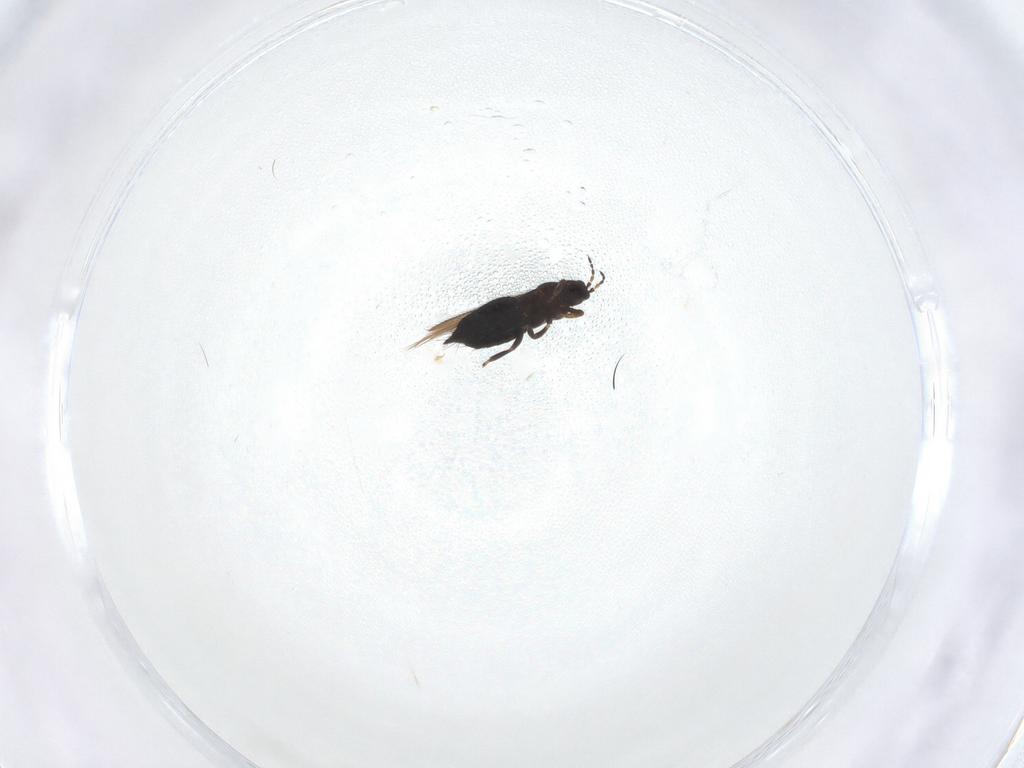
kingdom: Animalia
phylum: Arthropoda
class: Insecta
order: Thysanoptera
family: Thripidae
